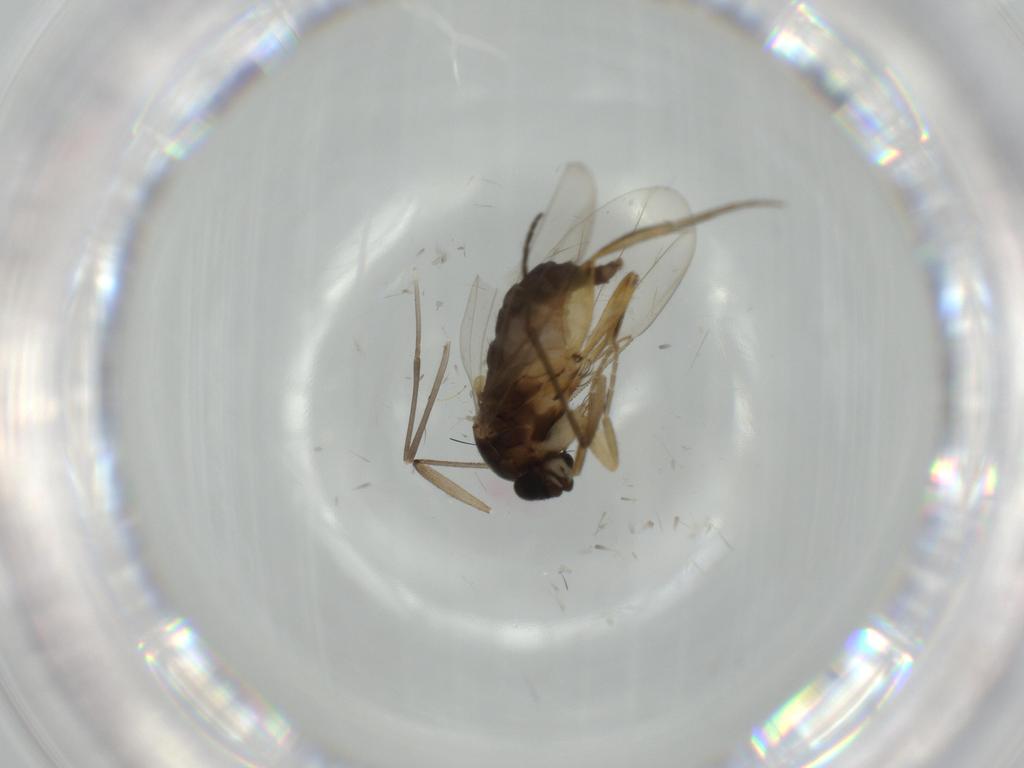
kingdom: Animalia
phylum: Arthropoda
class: Insecta
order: Diptera
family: Phoridae
